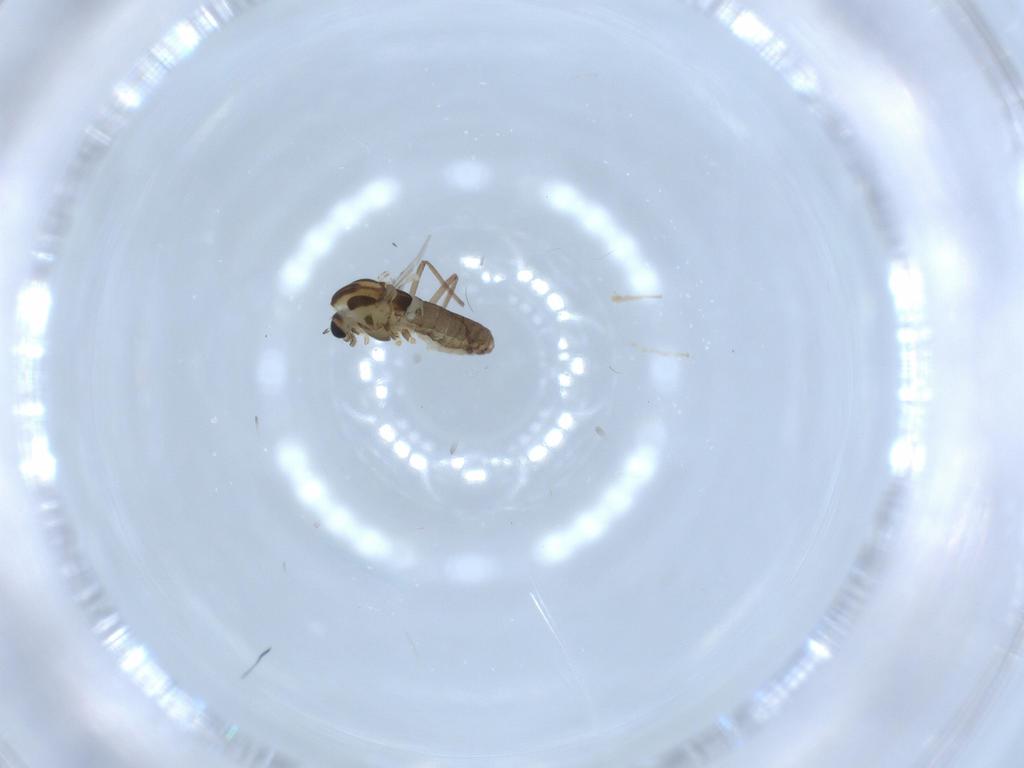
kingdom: Animalia
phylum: Arthropoda
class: Insecta
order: Diptera
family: Chironomidae
